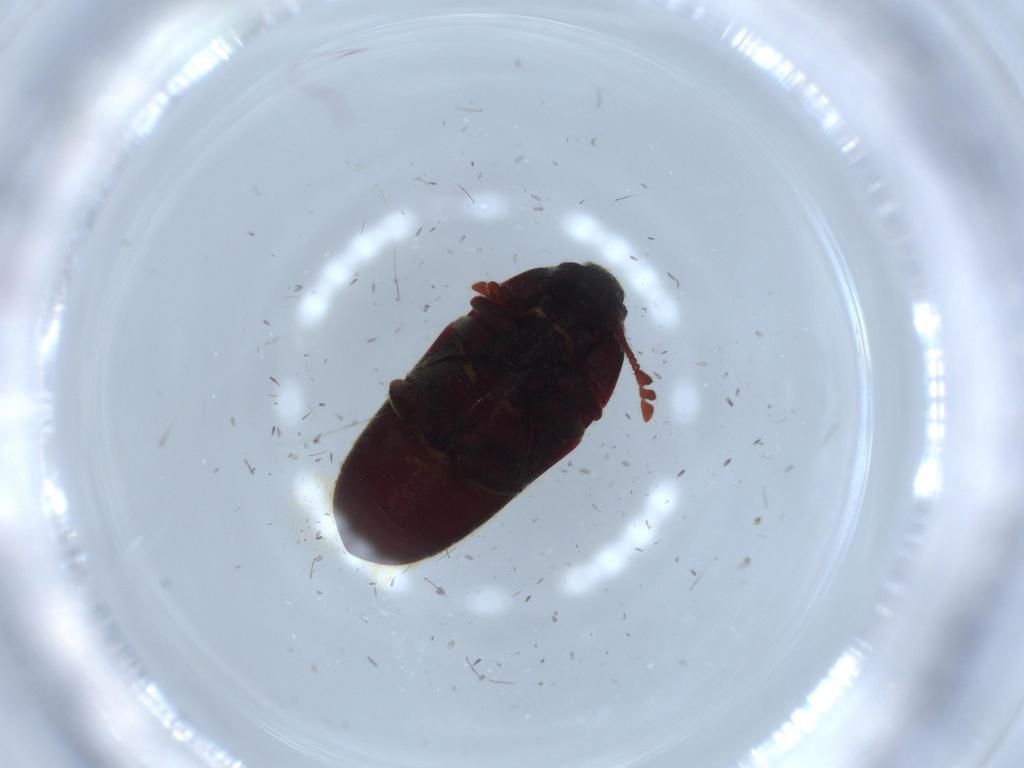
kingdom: Animalia
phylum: Arthropoda
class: Insecta
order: Coleoptera
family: Throscidae
